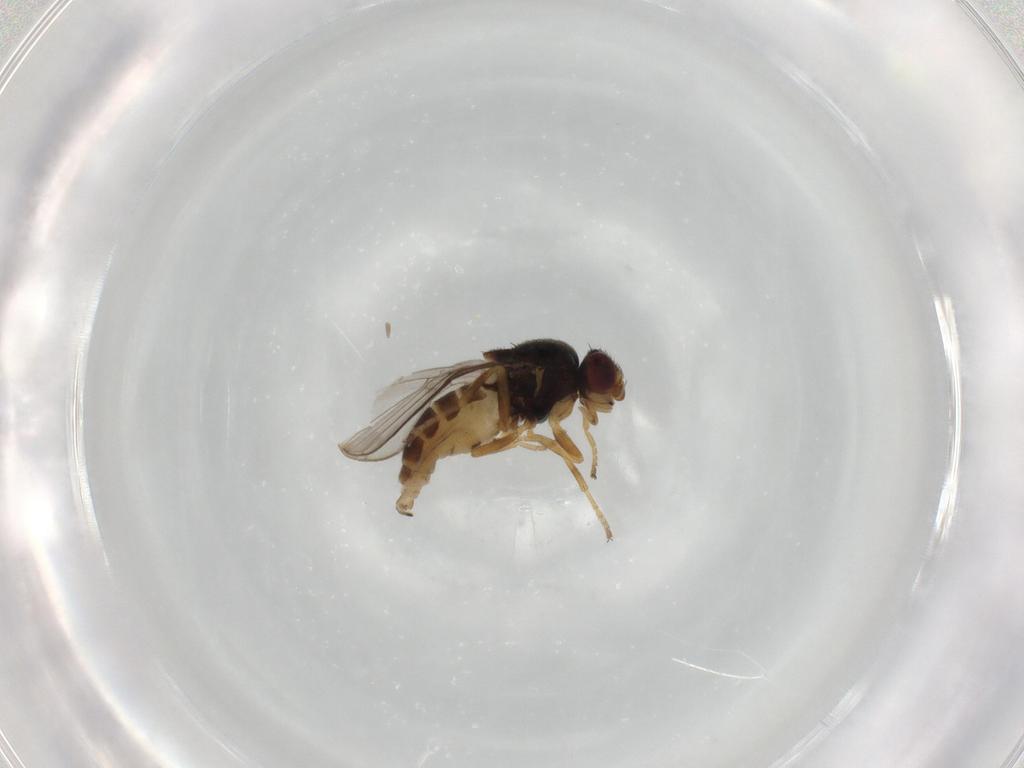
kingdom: Animalia
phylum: Arthropoda
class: Insecta
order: Diptera
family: Chloropidae
